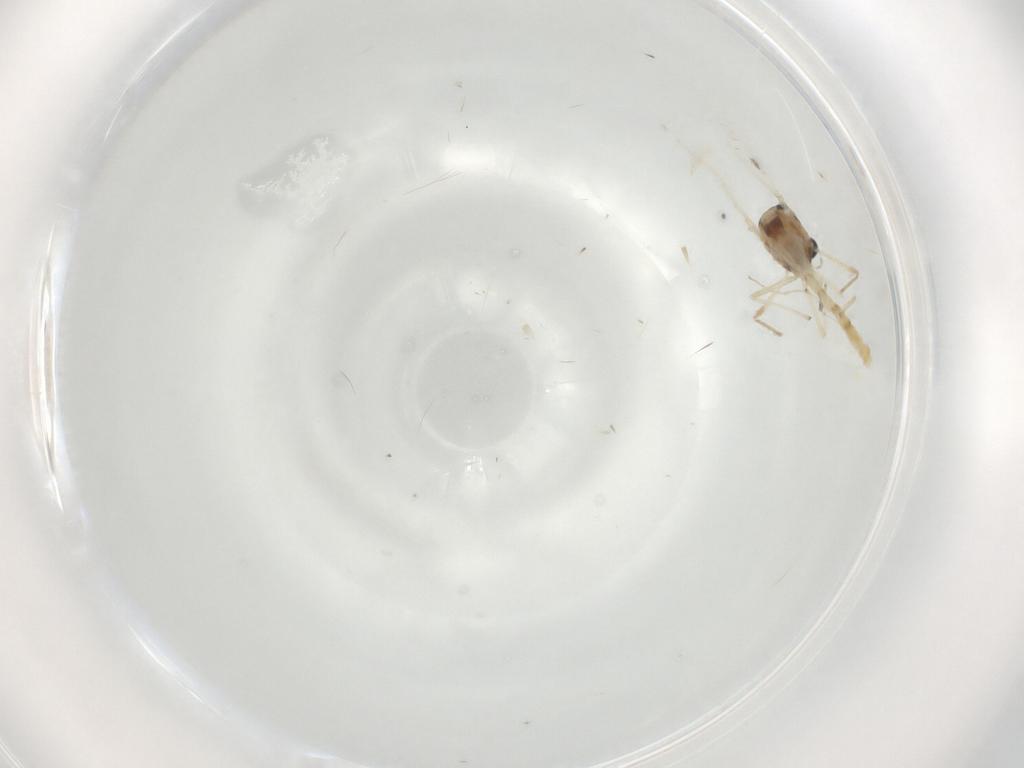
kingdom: Animalia
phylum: Arthropoda
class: Insecta
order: Diptera
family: Chironomidae
